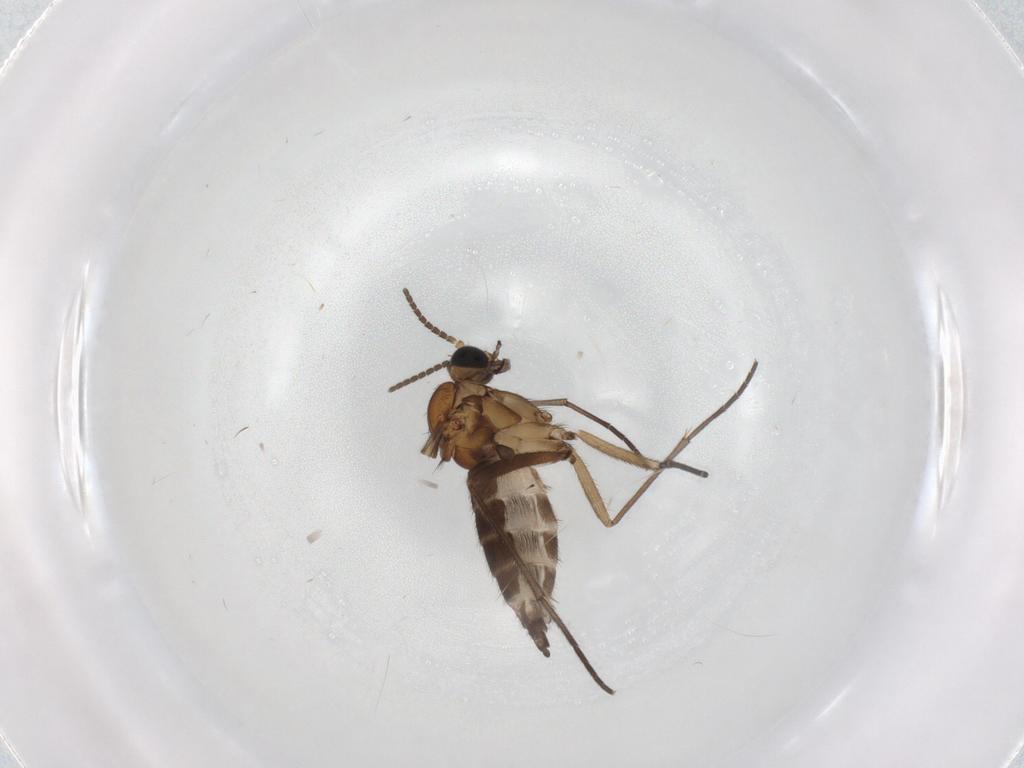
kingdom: Animalia
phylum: Arthropoda
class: Insecta
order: Diptera
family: Sciaridae
